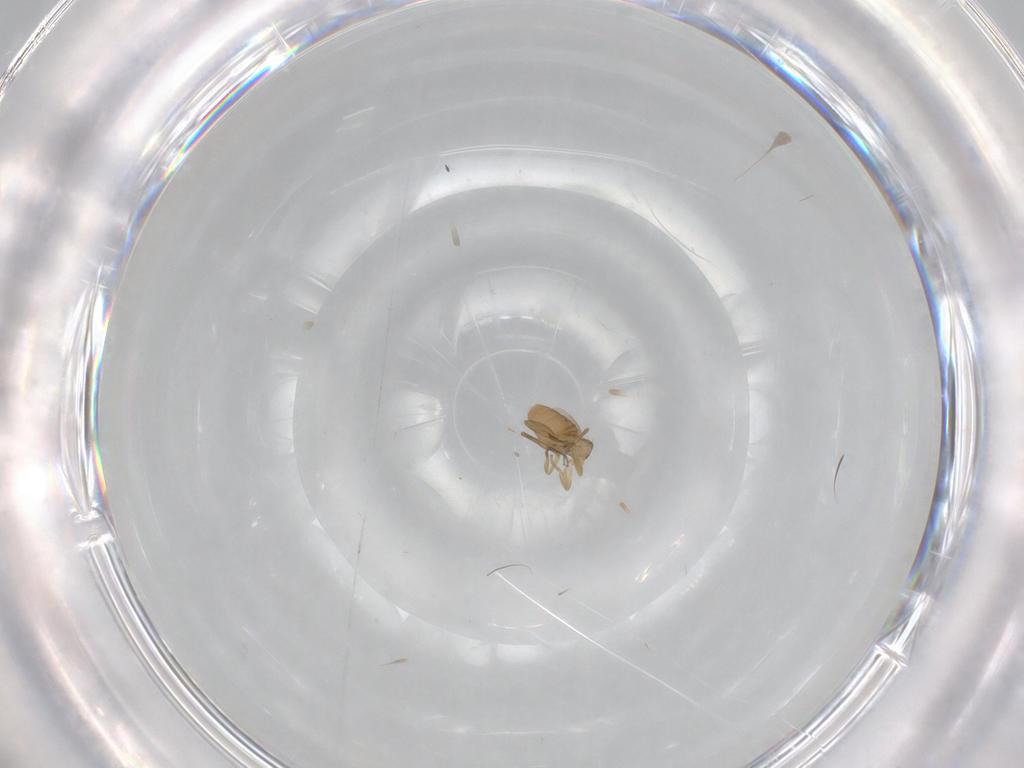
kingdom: Animalia
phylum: Arthropoda
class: Insecta
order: Diptera
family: Phoridae
